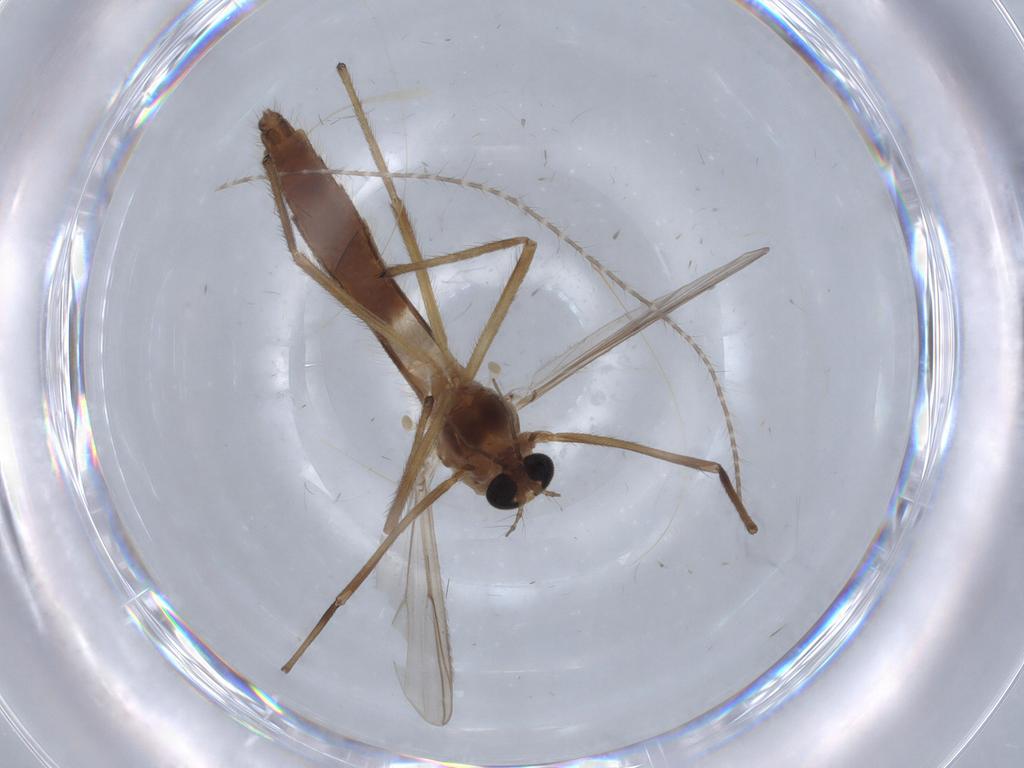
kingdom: Animalia
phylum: Arthropoda
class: Insecta
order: Diptera
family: Chironomidae
